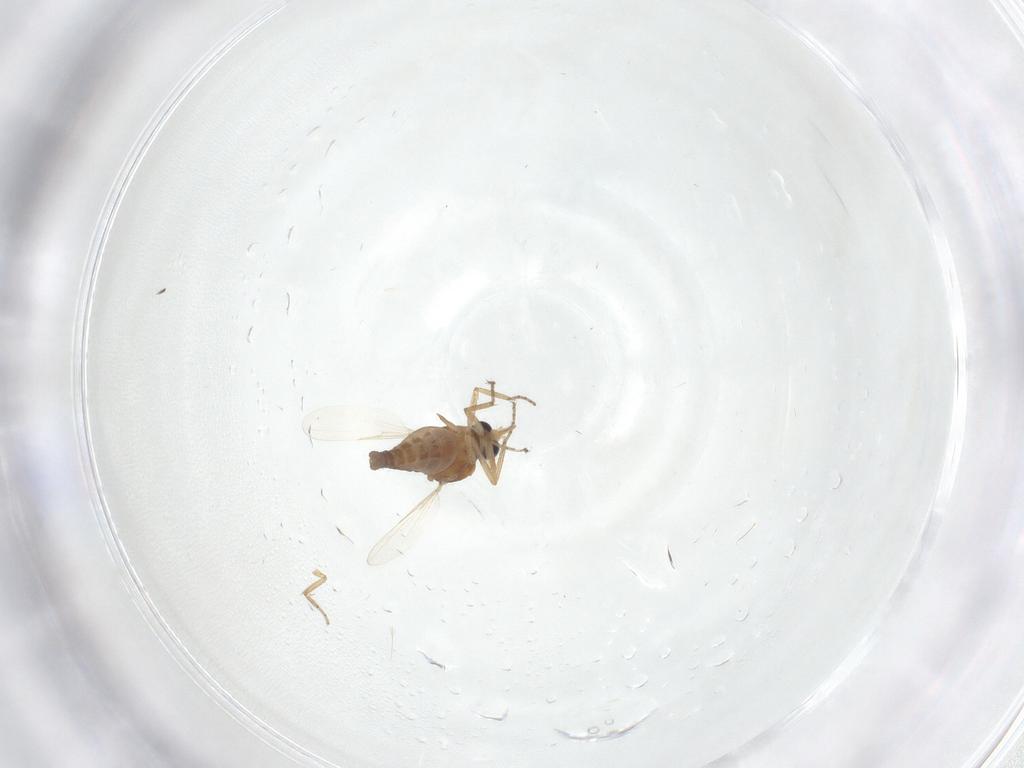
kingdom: Animalia
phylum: Arthropoda
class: Insecta
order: Diptera
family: Ceratopogonidae
